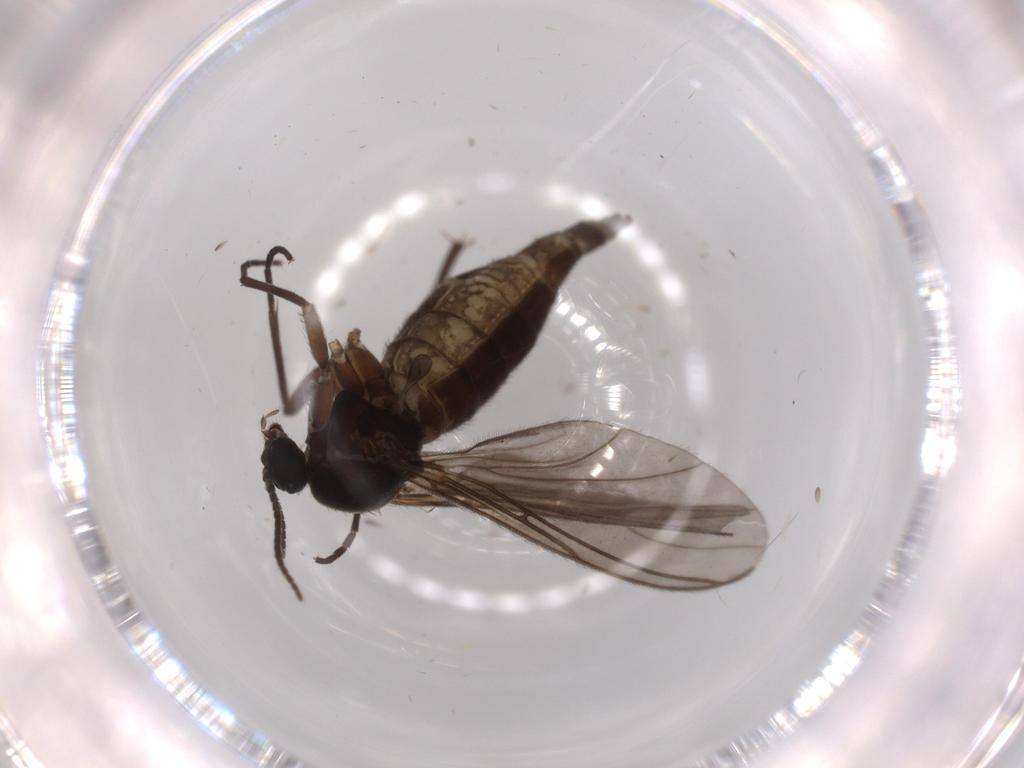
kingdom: Animalia
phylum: Arthropoda
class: Insecta
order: Diptera
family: Sciaridae
